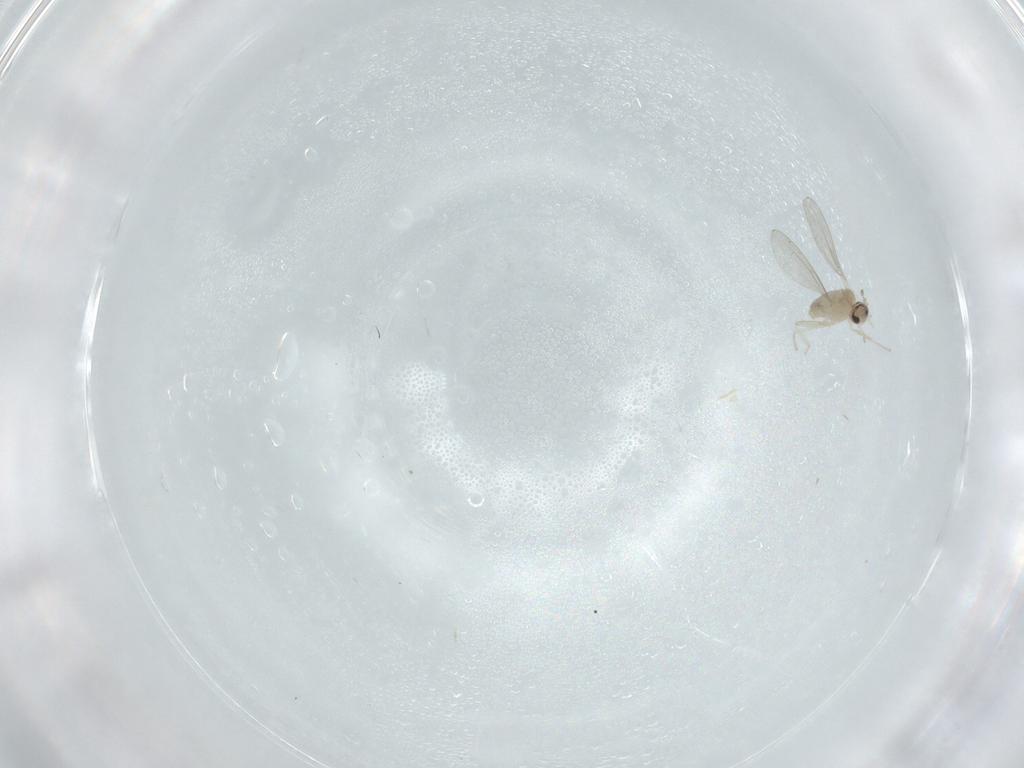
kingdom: Animalia
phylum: Arthropoda
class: Insecta
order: Diptera
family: Cecidomyiidae
